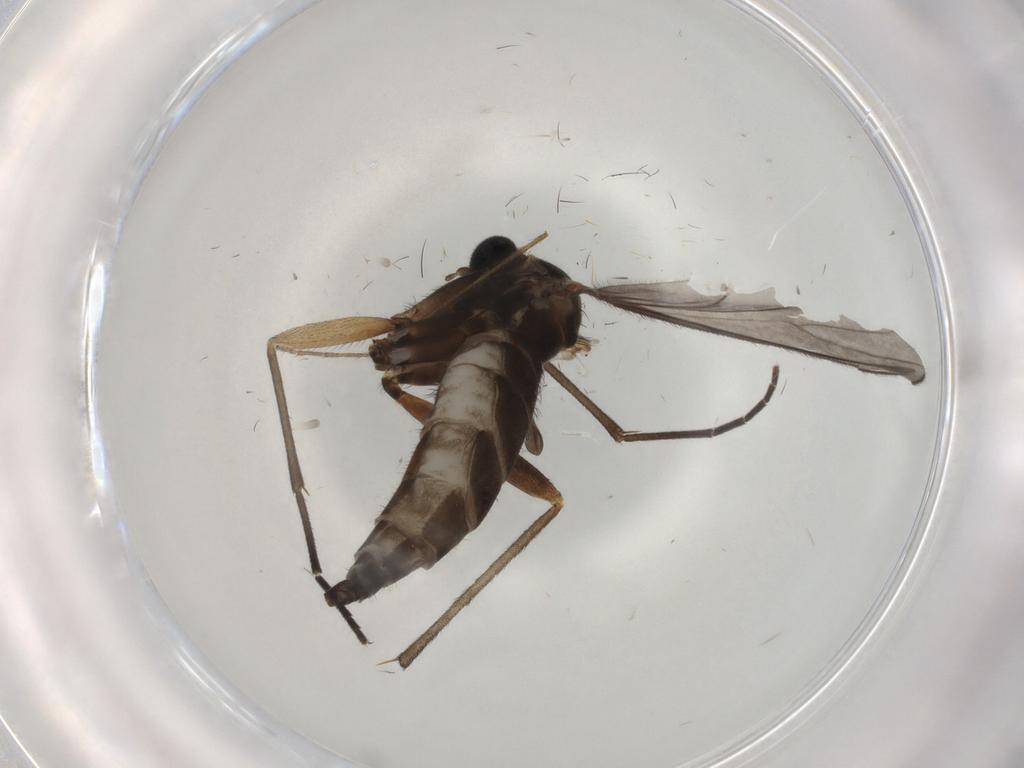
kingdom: Animalia
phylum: Arthropoda
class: Insecta
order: Diptera
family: Limoniidae
